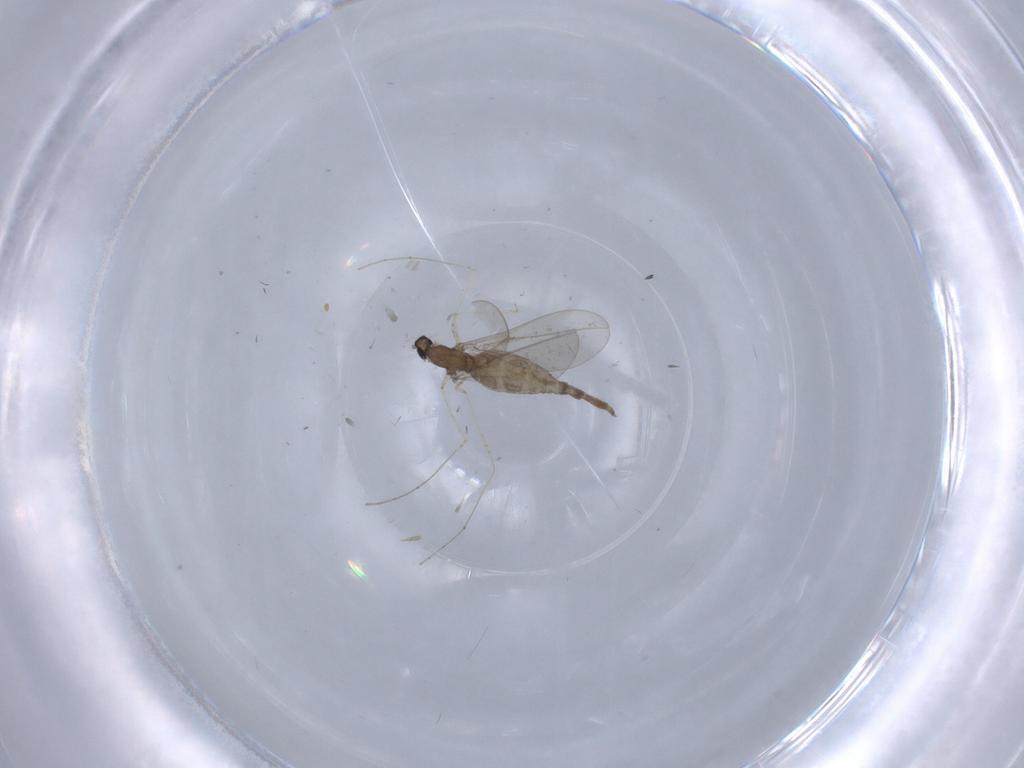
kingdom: Animalia
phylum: Arthropoda
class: Insecta
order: Diptera
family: Cecidomyiidae
